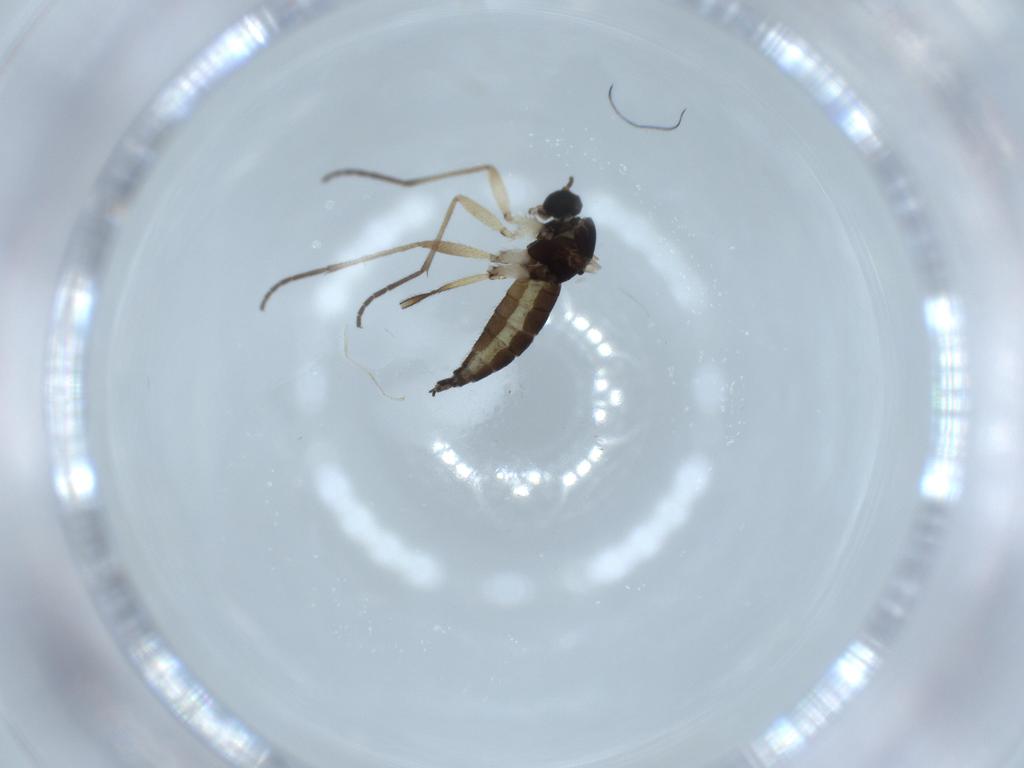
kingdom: Animalia
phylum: Arthropoda
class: Insecta
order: Diptera
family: Sciaridae
